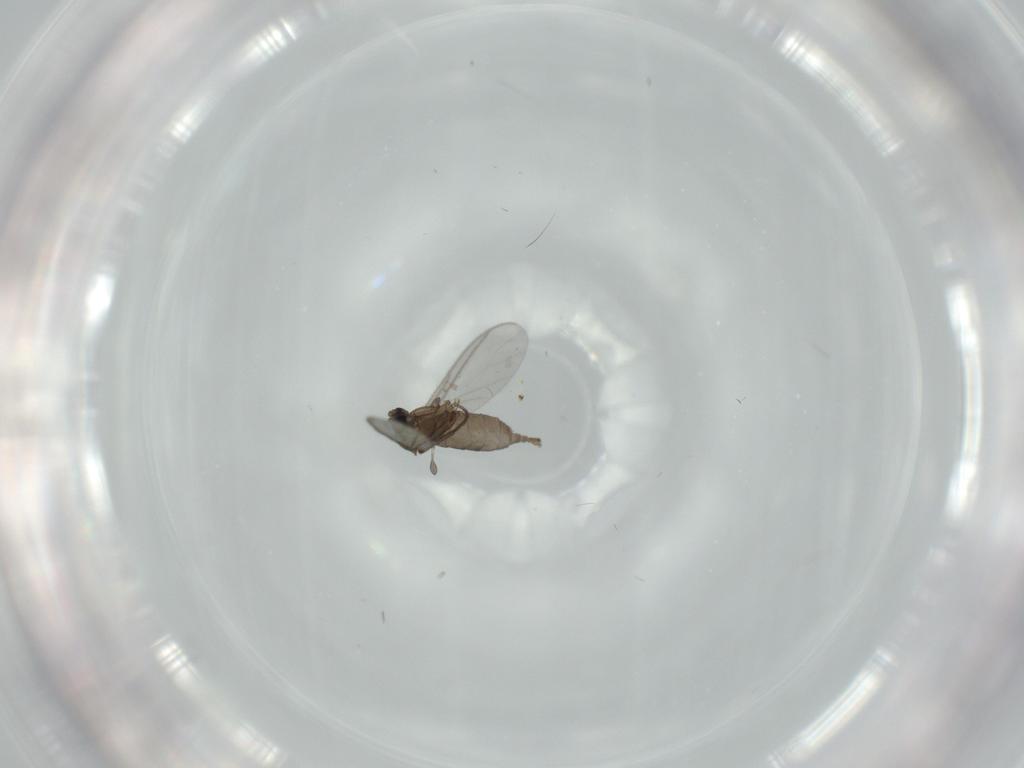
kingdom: Animalia
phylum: Arthropoda
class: Insecta
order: Diptera
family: Sciaridae
